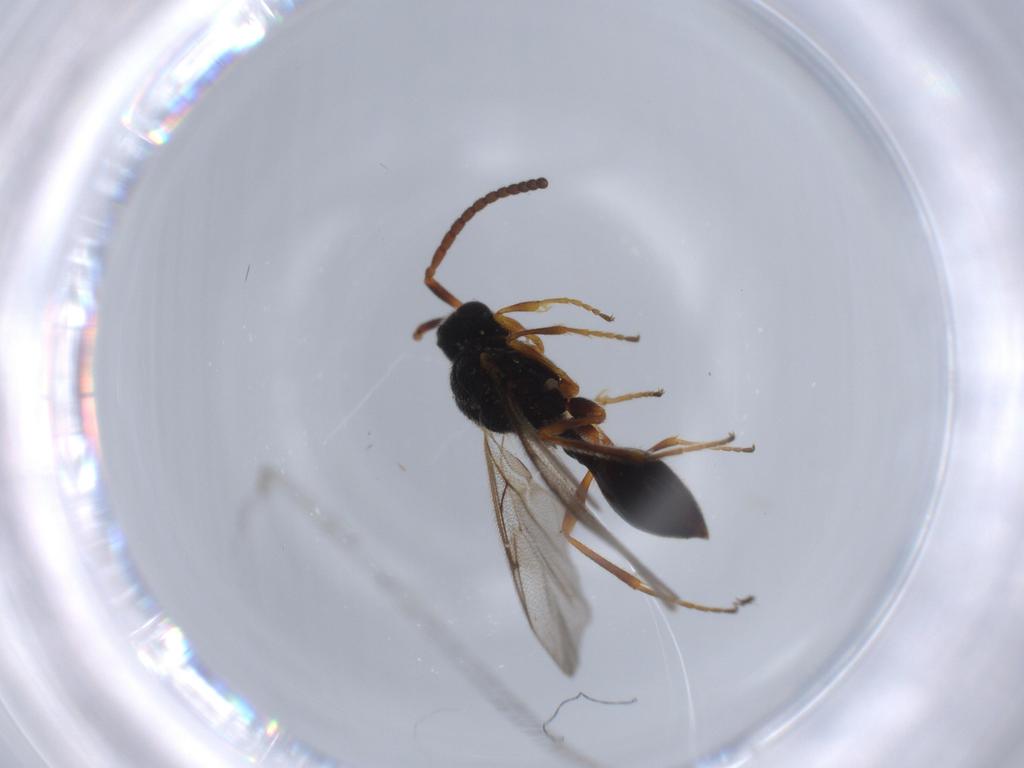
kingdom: Animalia
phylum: Arthropoda
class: Insecta
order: Hymenoptera
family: Diapriidae
